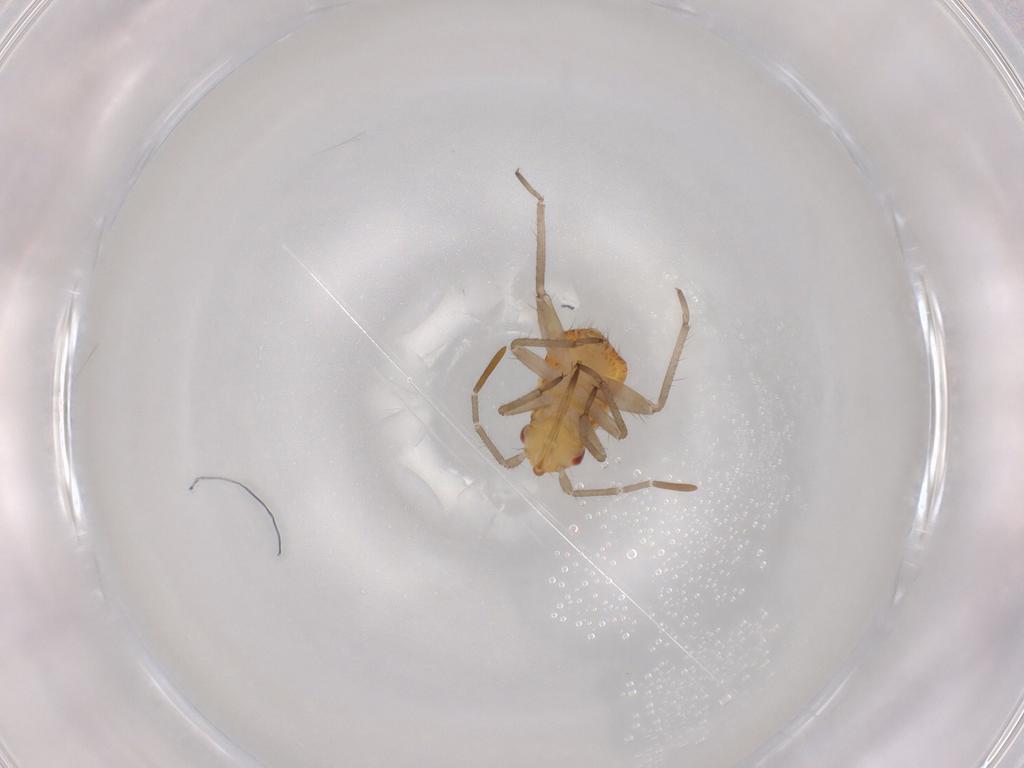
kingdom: Animalia
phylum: Arthropoda
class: Insecta
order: Hemiptera
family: Miridae
